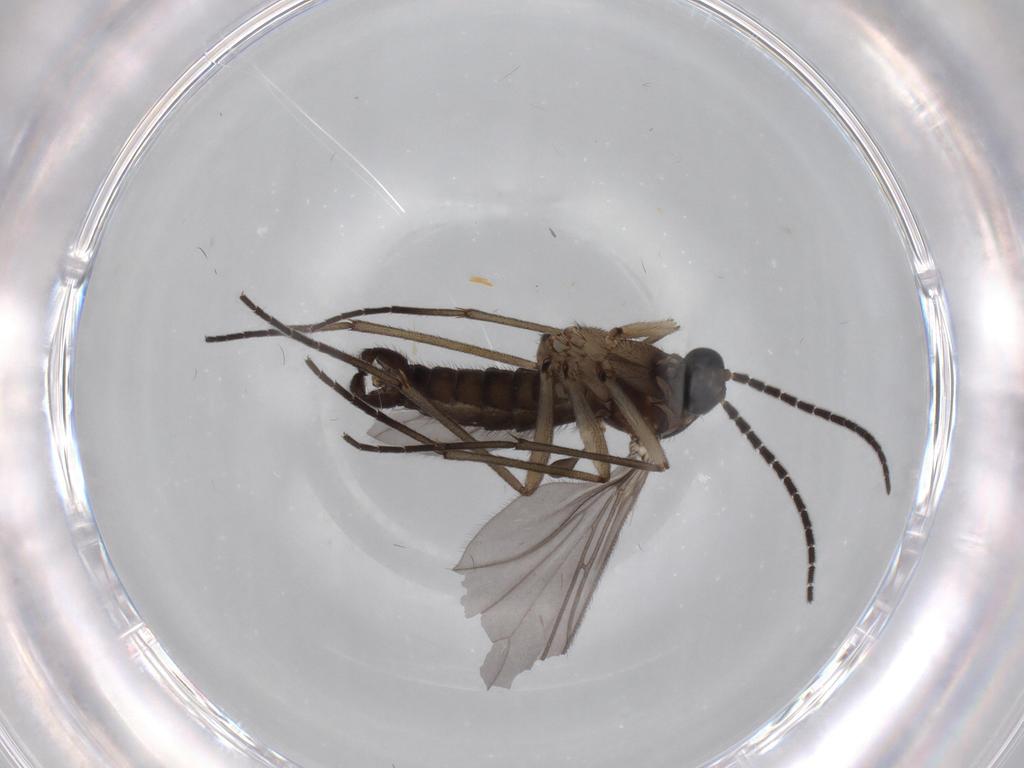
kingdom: Animalia
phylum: Arthropoda
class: Insecta
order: Diptera
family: Sciaridae
